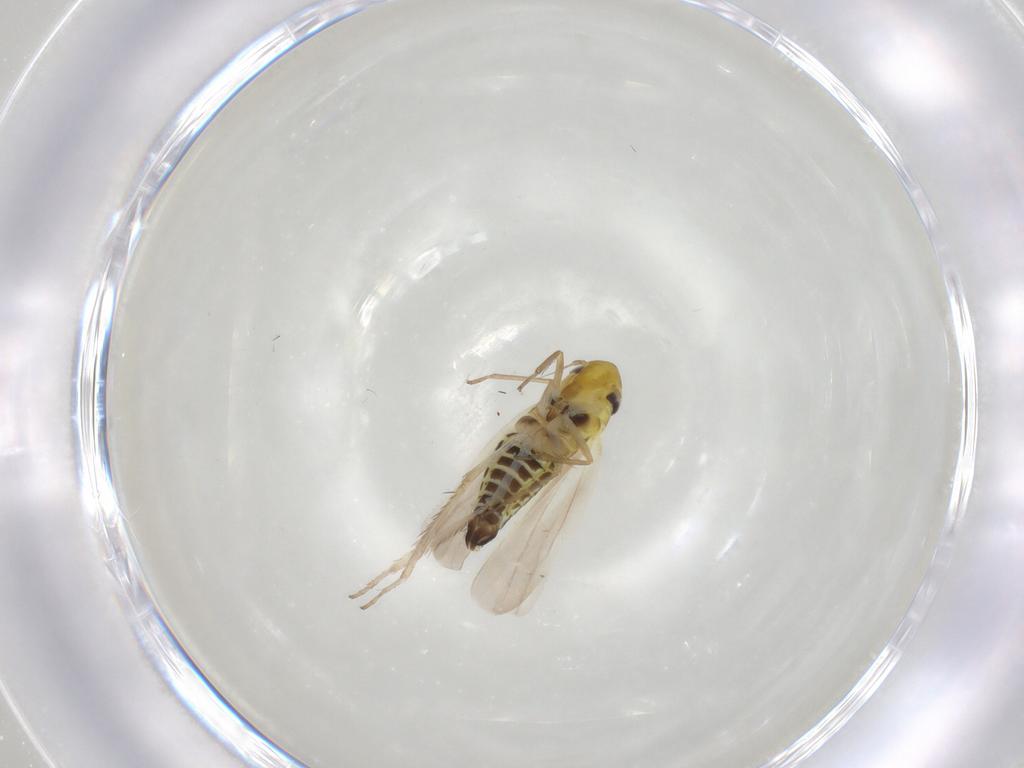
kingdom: Animalia
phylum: Arthropoda
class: Insecta
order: Hemiptera
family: Cicadellidae
